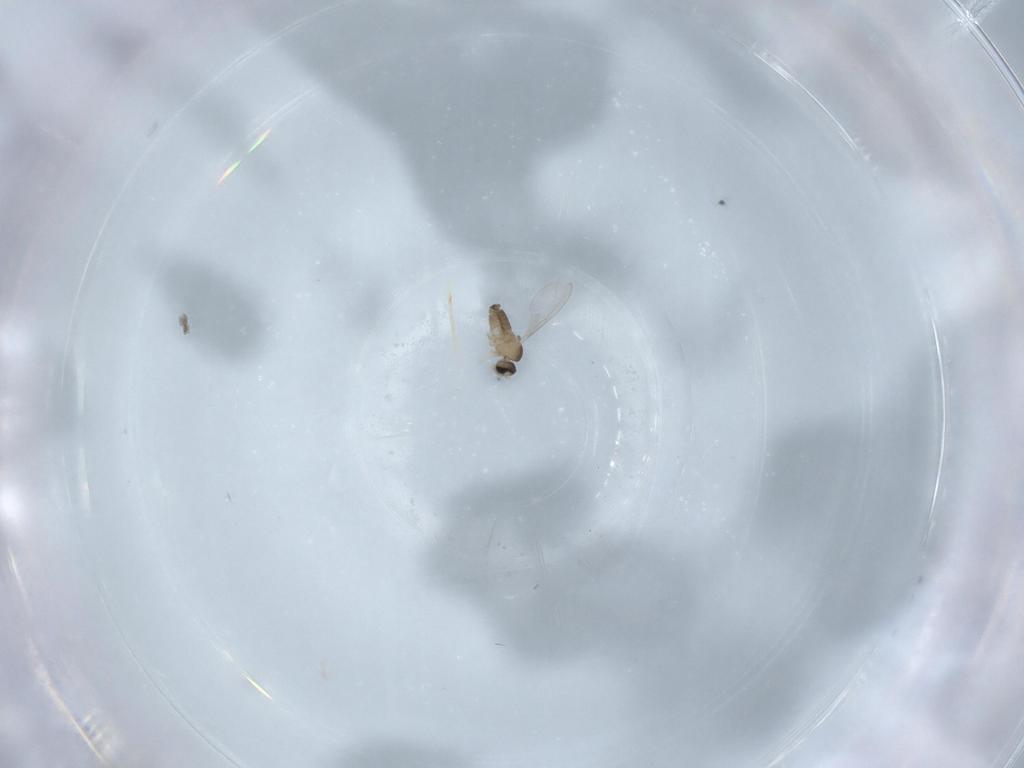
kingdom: Animalia
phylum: Arthropoda
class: Insecta
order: Diptera
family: Cecidomyiidae
